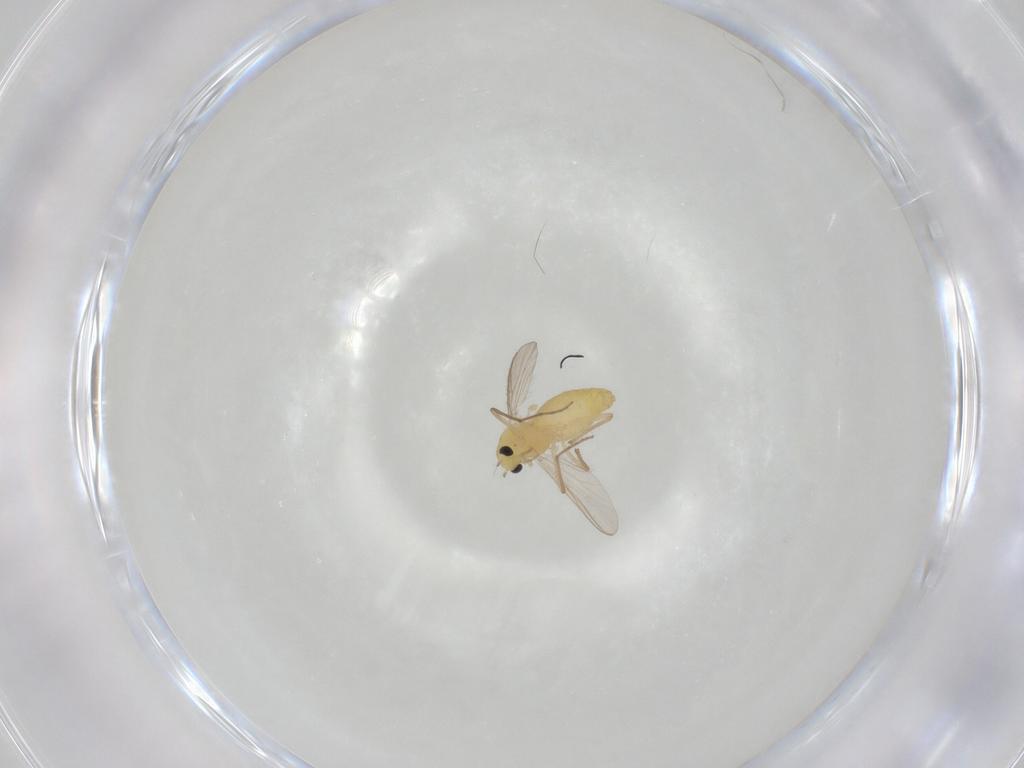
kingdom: Animalia
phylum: Arthropoda
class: Insecta
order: Diptera
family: Chironomidae
